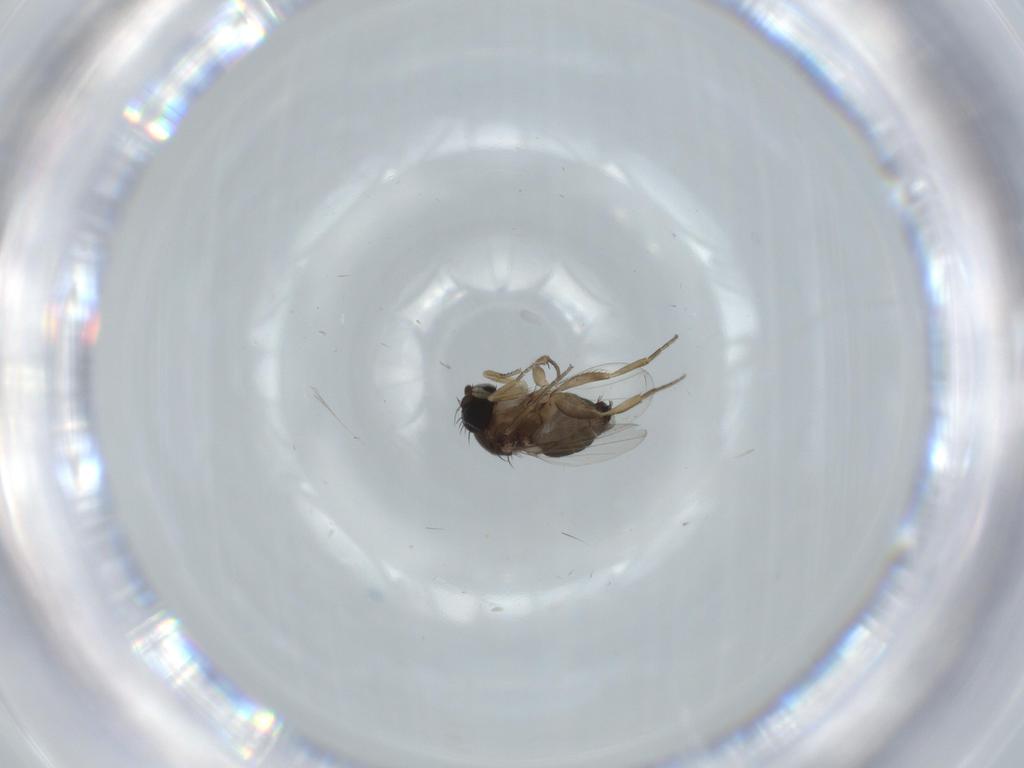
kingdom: Animalia
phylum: Arthropoda
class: Insecta
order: Diptera
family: Phoridae
